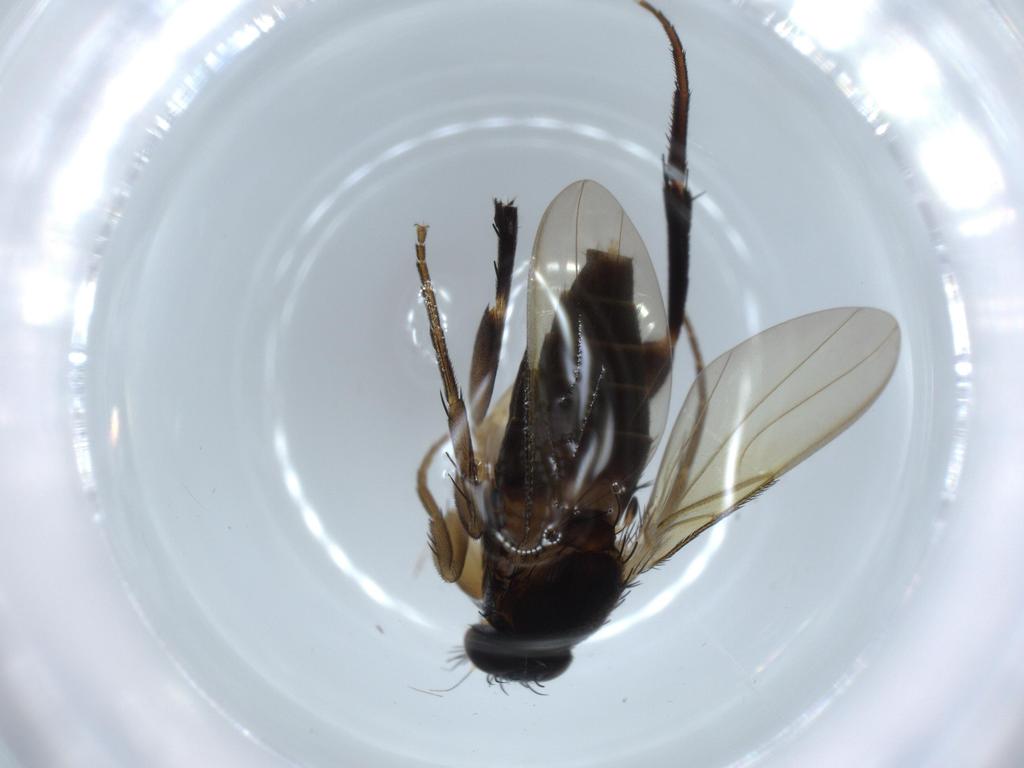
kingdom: Animalia
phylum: Arthropoda
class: Insecta
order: Diptera
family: Phoridae
